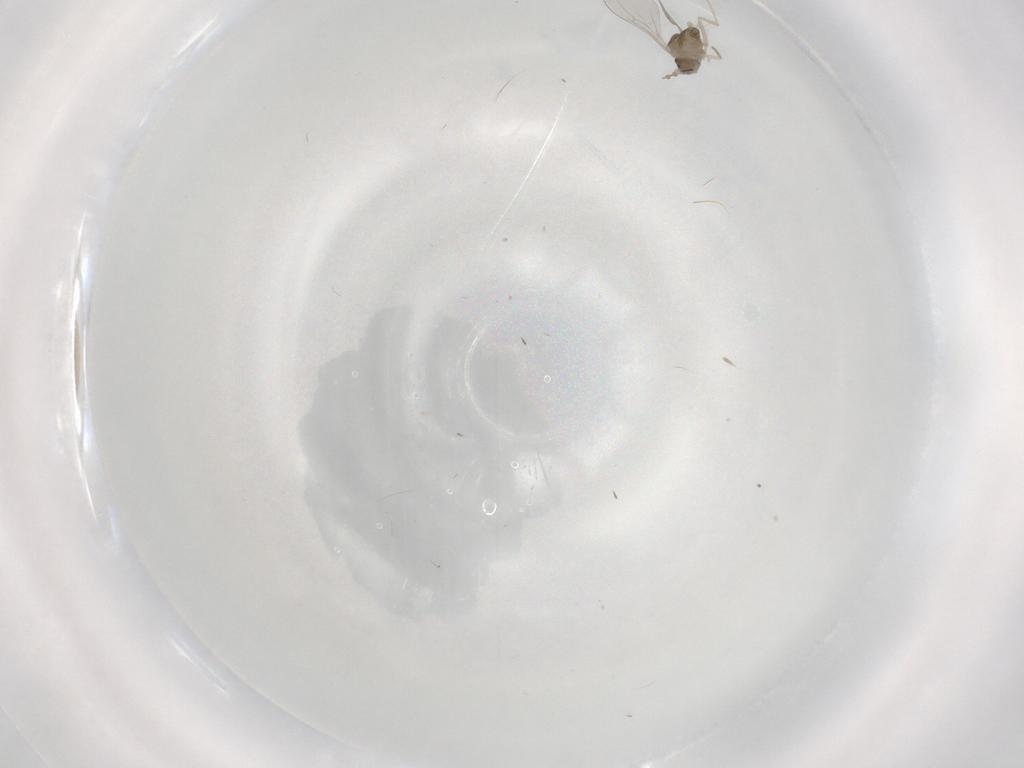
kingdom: Animalia
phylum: Arthropoda
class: Insecta
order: Diptera
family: Cecidomyiidae
